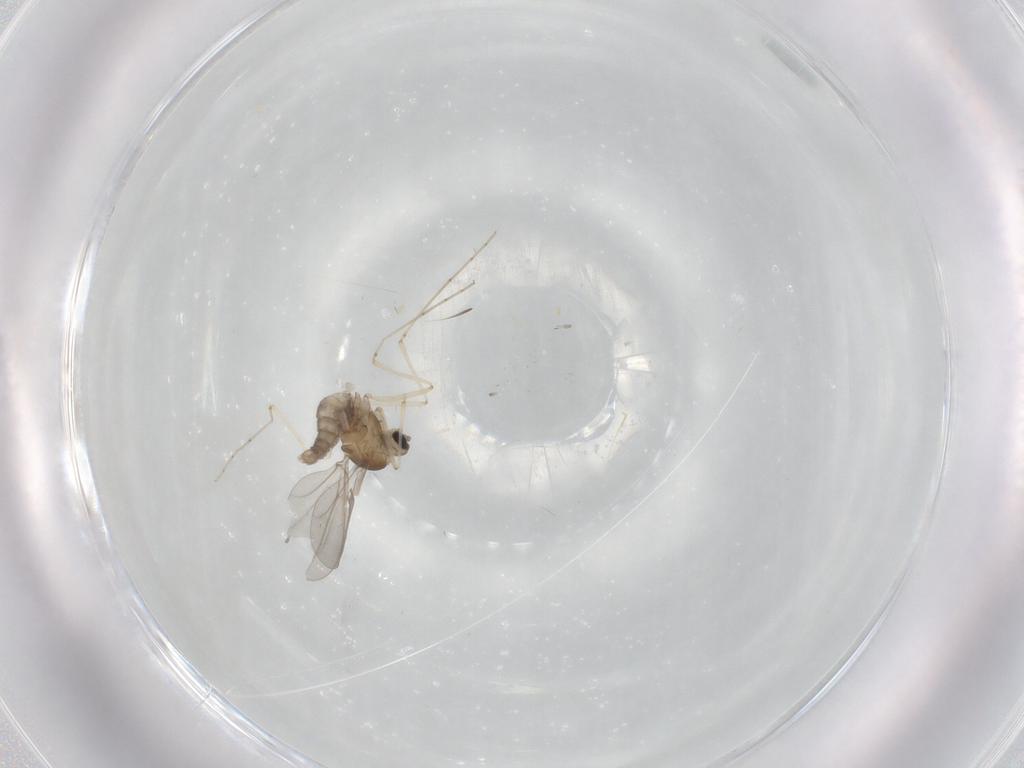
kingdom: Animalia
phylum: Arthropoda
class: Insecta
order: Diptera
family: Cecidomyiidae
